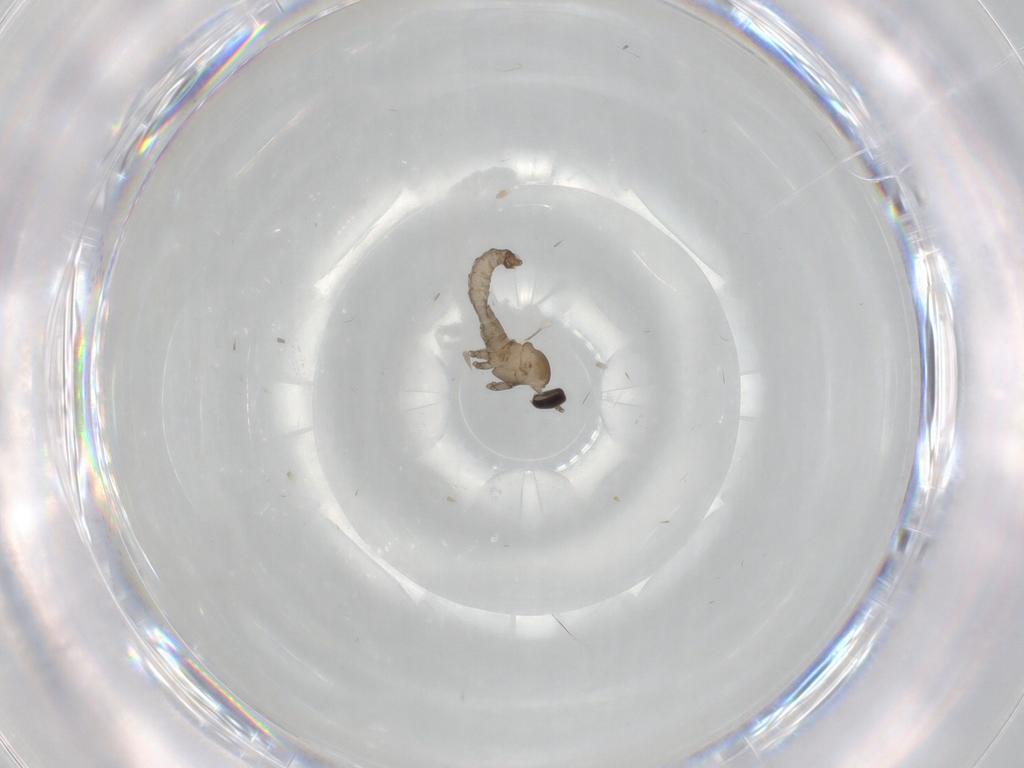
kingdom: Animalia
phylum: Arthropoda
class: Insecta
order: Diptera
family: Cecidomyiidae
